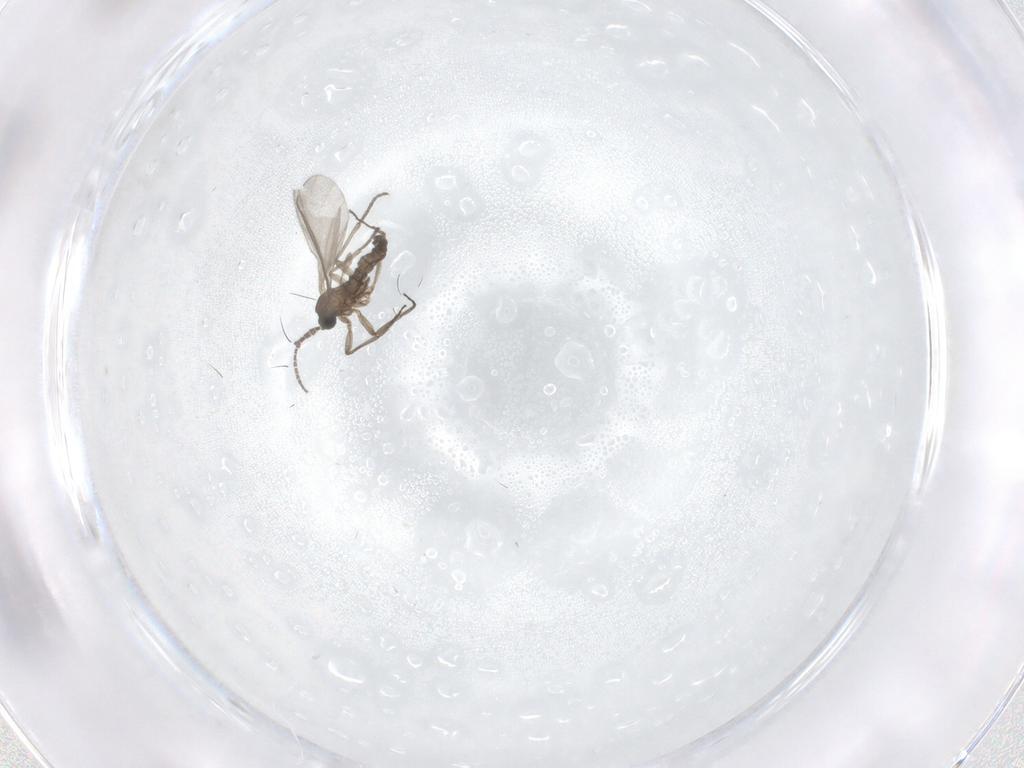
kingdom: Animalia
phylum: Arthropoda
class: Insecta
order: Diptera
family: Sciaridae
